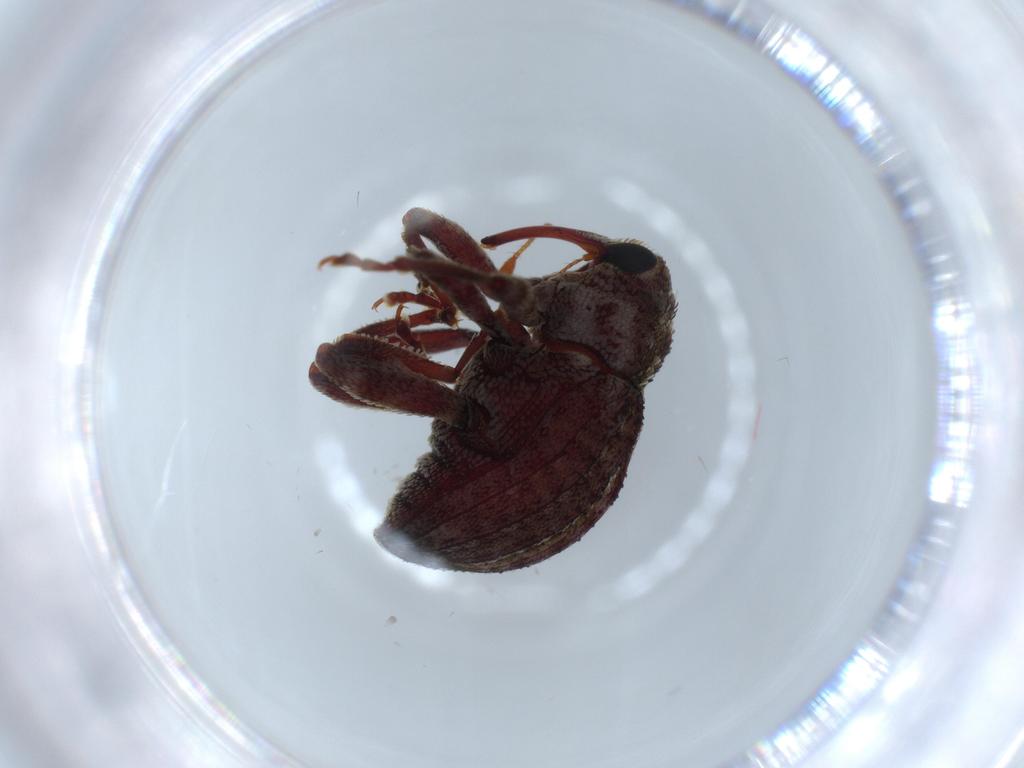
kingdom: Animalia
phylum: Arthropoda
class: Insecta
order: Coleoptera
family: Curculionidae
